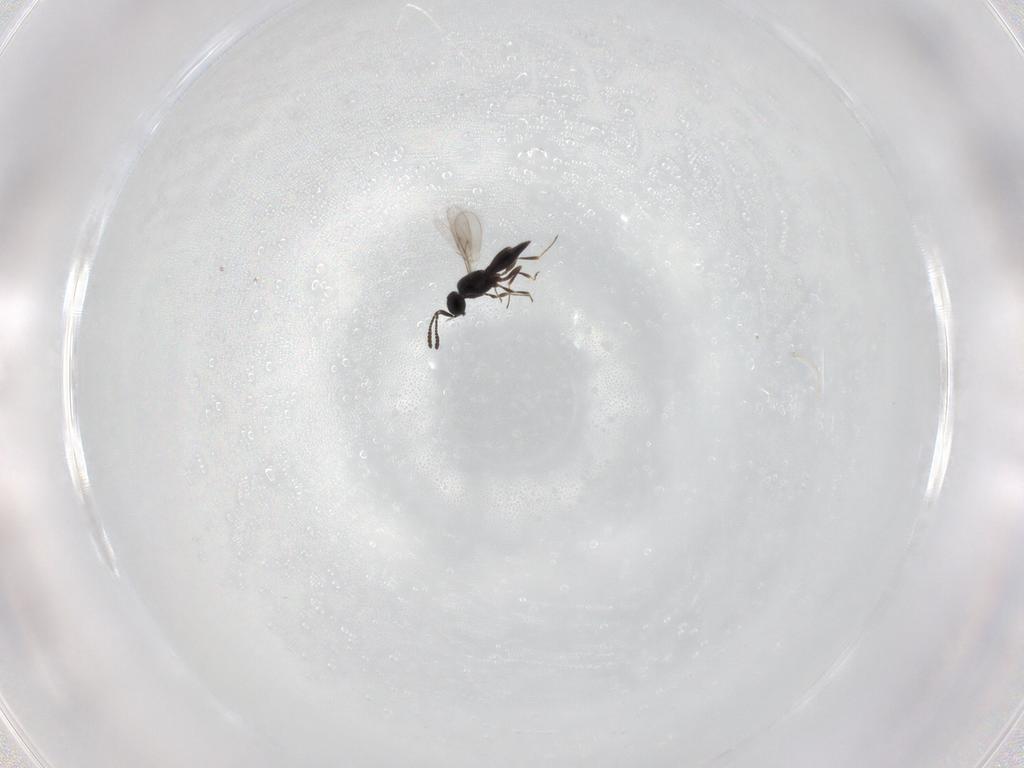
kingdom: Animalia
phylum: Arthropoda
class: Insecta
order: Hymenoptera
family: Scelionidae
